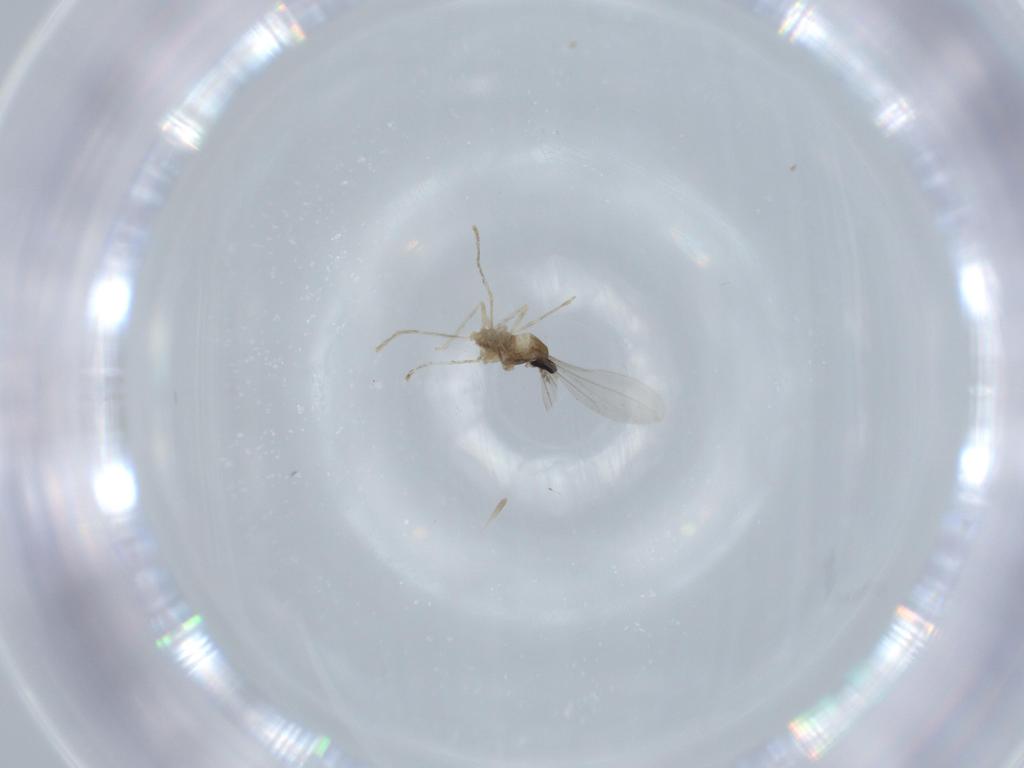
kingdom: Animalia
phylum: Arthropoda
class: Insecta
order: Diptera
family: Cecidomyiidae
